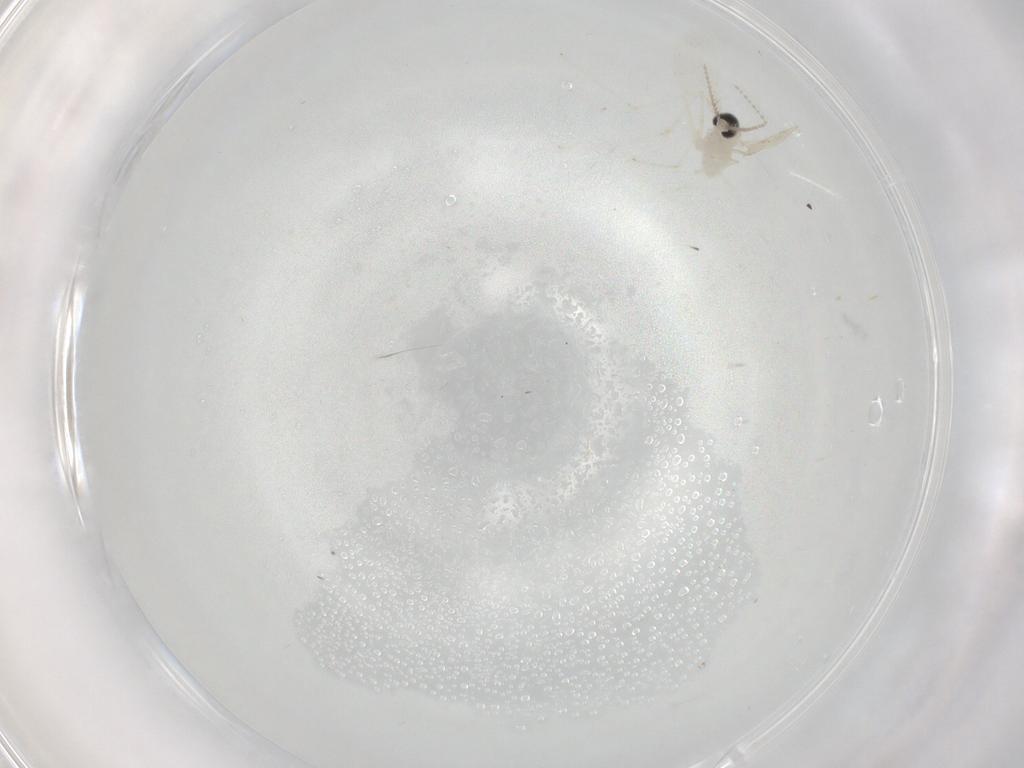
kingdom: Animalia
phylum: Arthropoda
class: Insecta
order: Diptera
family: Cecidomyiidae
